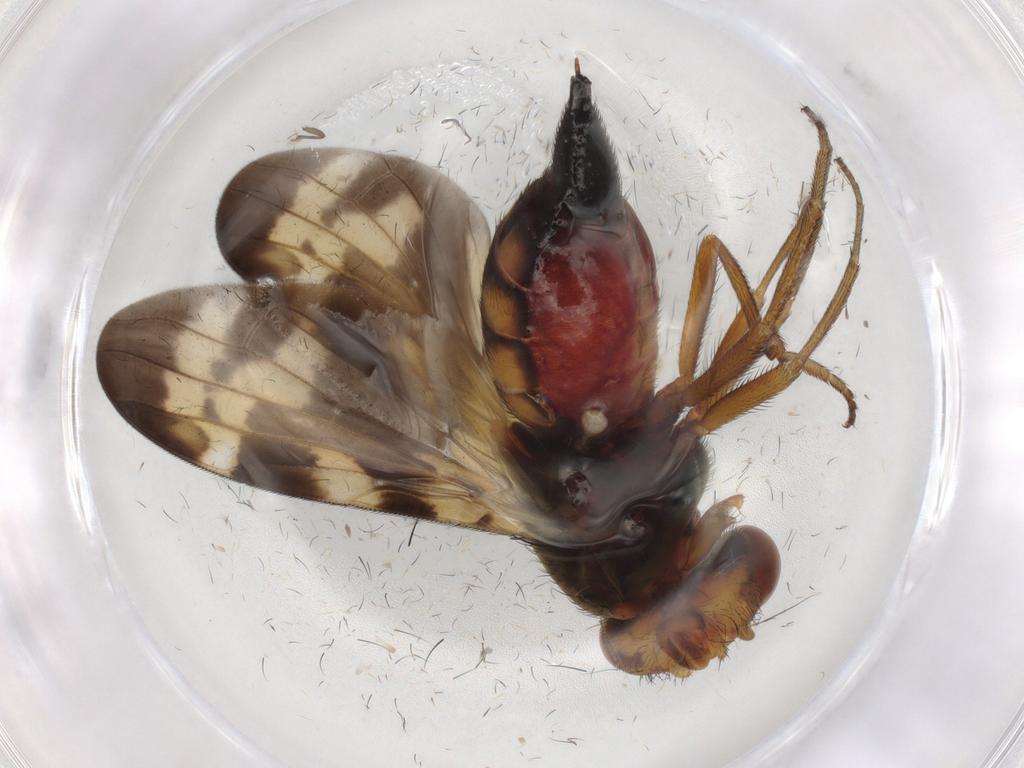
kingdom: Animalia
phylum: Arthropoda
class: Insecta
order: Diptera
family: Ulidiidae
